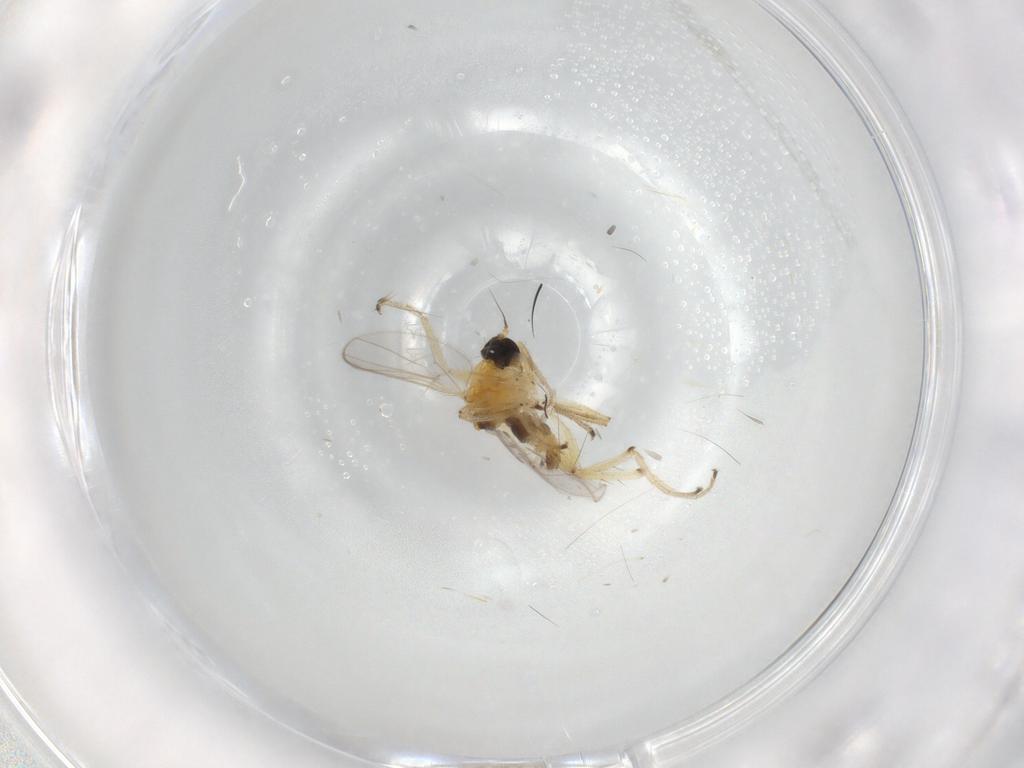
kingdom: Animalia
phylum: Arthropoda
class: Insecta
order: Diptera
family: Hybotidae
